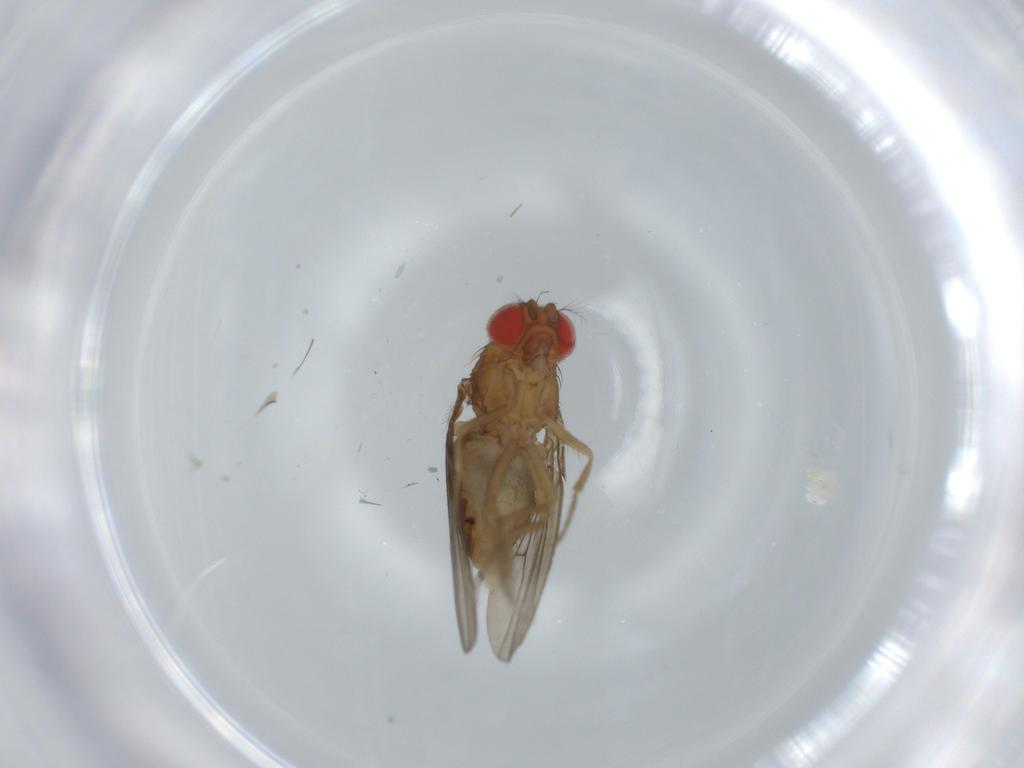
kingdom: Animalia
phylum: Arthropoda
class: Insecta
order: Diptera
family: Drosophilidae
